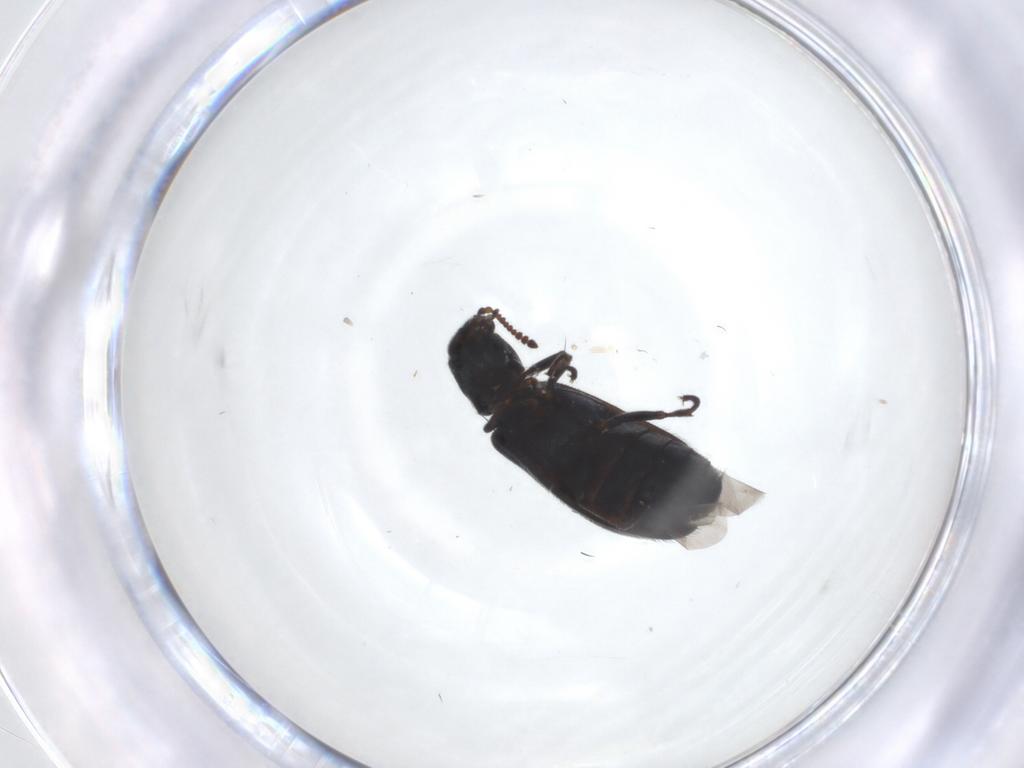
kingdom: Animalia
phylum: Arthropoda
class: Insecta
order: Coleoptera
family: Melyridae
